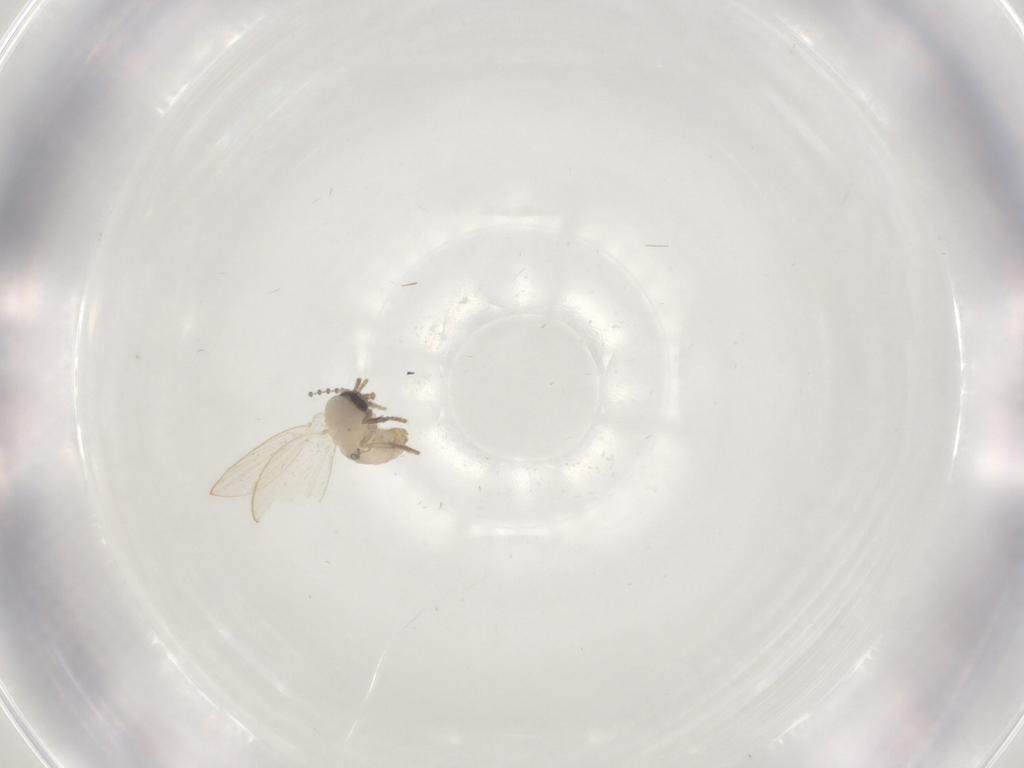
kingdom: Animalia
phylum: Arthropoda
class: Insecta
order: Diptera
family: Psychodidae
